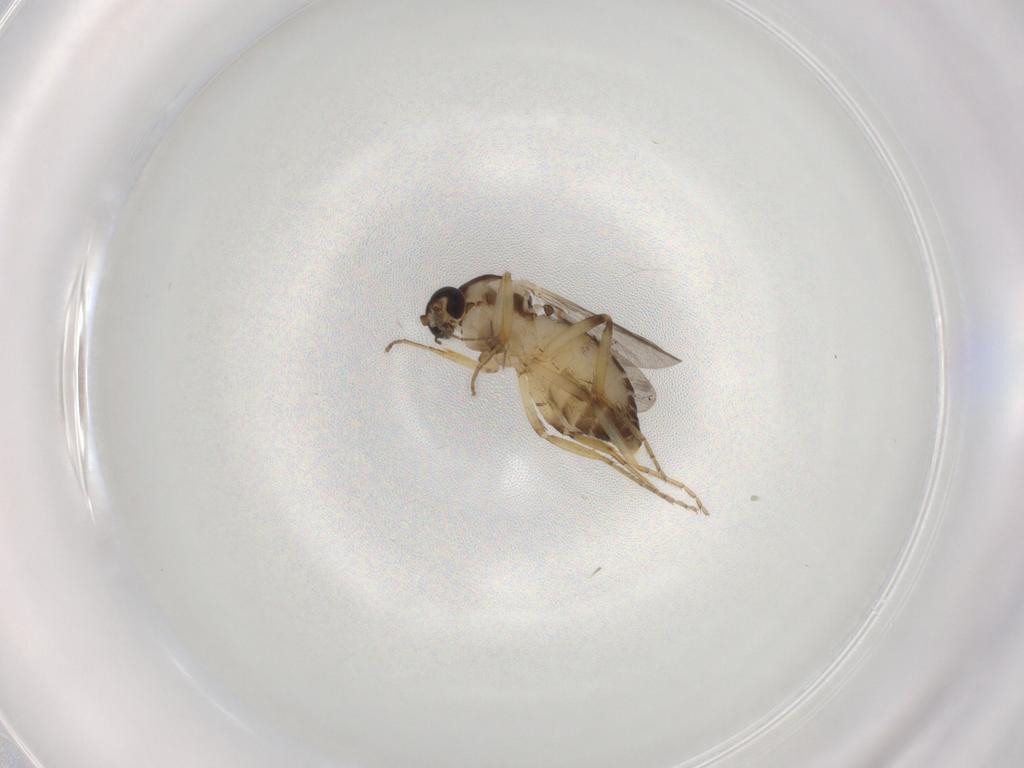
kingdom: Animalia
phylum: Arthropoda
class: Insecta
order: Diptera
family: Ceratopogonidae
